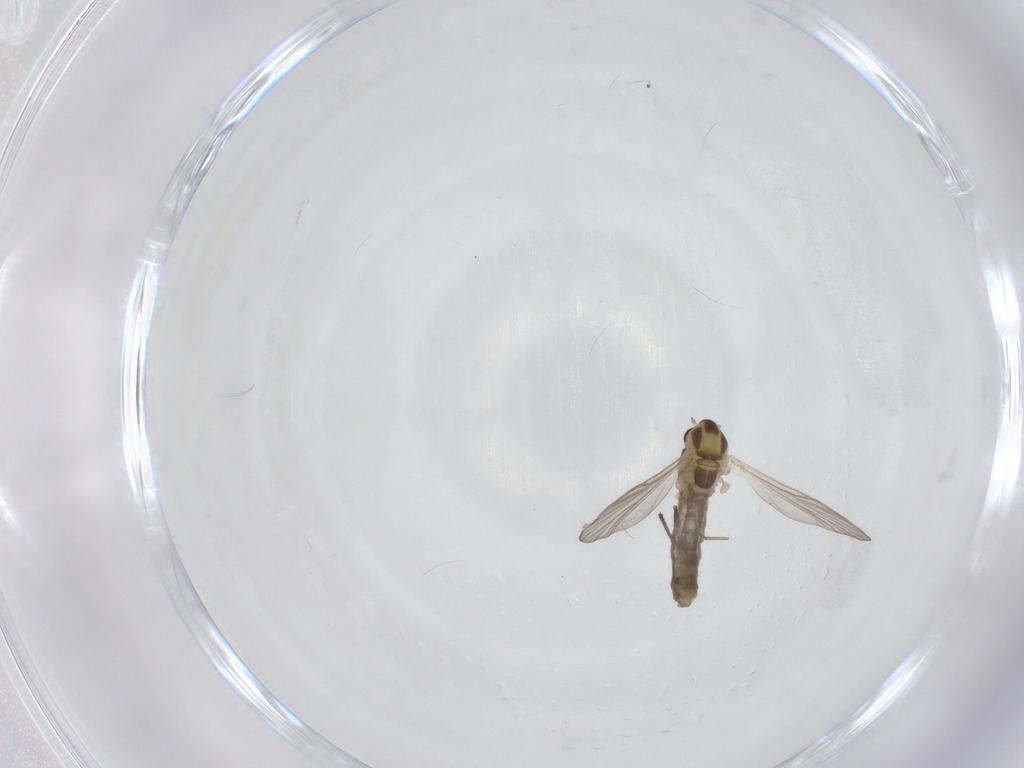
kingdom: Animalia
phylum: Arthropoda
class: Insecta
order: Diptera
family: Chironomidae
